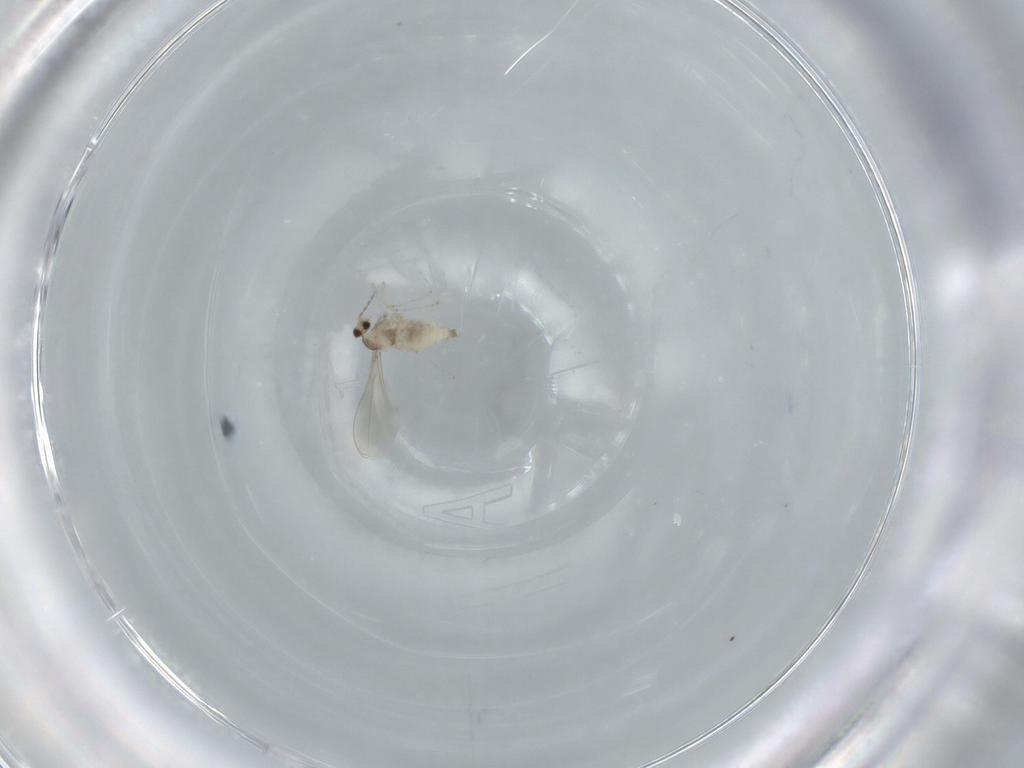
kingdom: Animalia
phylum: Arthropoda
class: Insecta
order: Diptera
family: Cecidomyiidae
